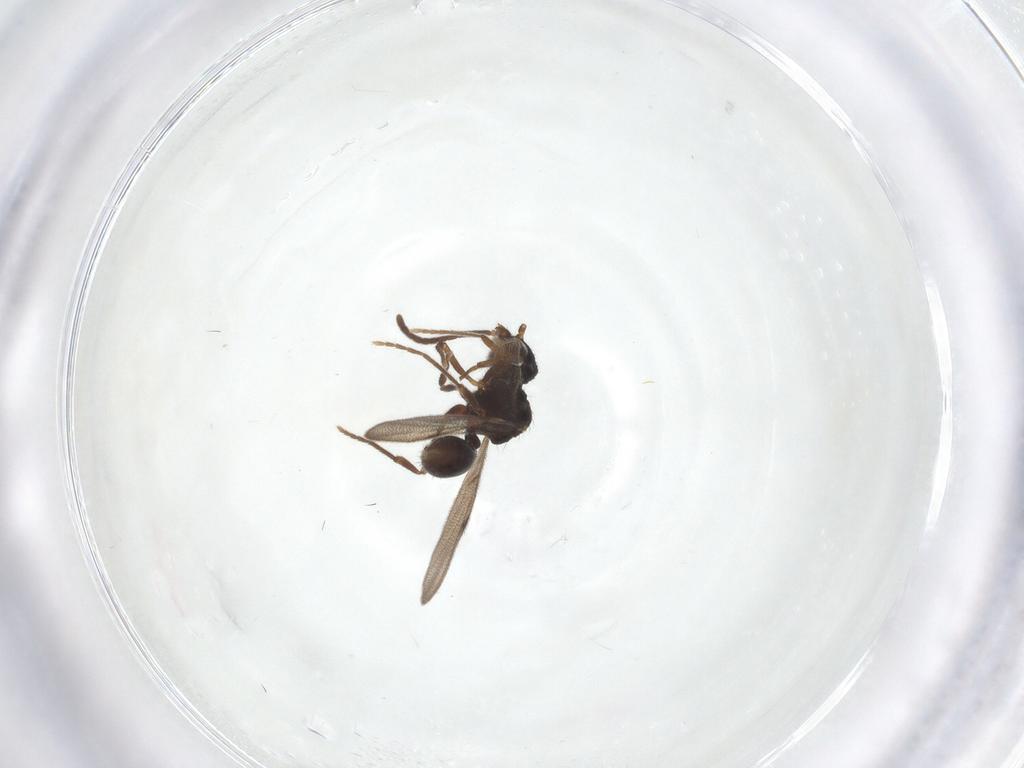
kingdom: Animalia
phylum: Arthropoda
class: Insecta
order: Hymenoptera
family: Formicidae
